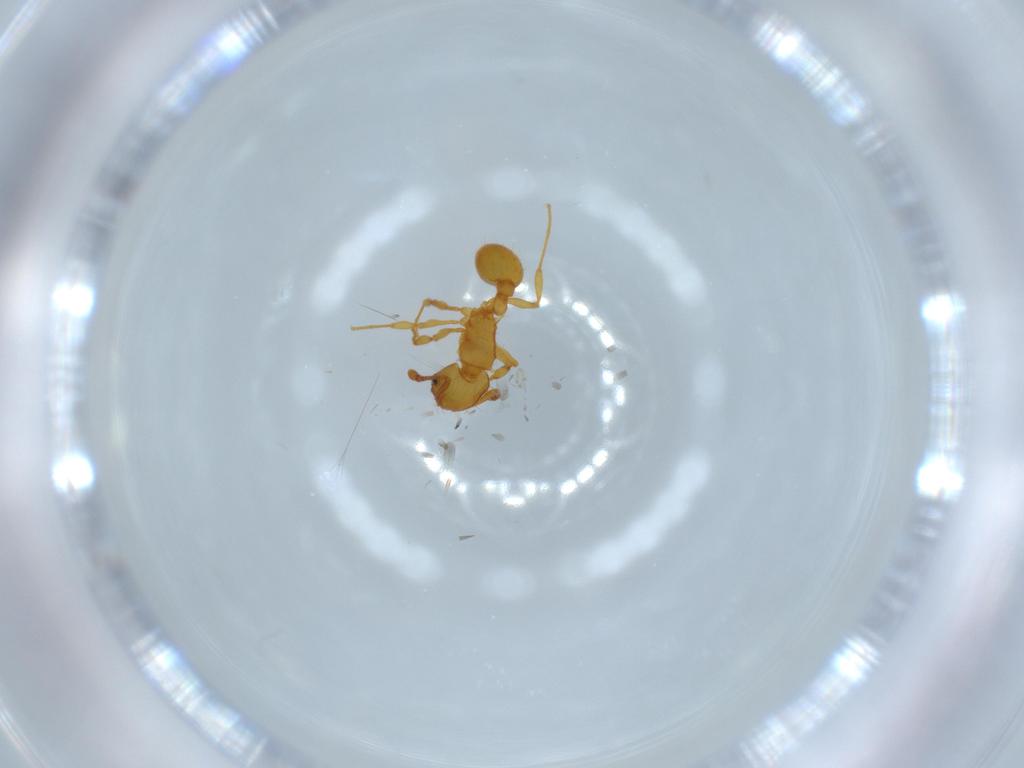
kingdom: Animalia
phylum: Arthropoda
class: Insecta
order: Hymenoptera
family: Formicidae
